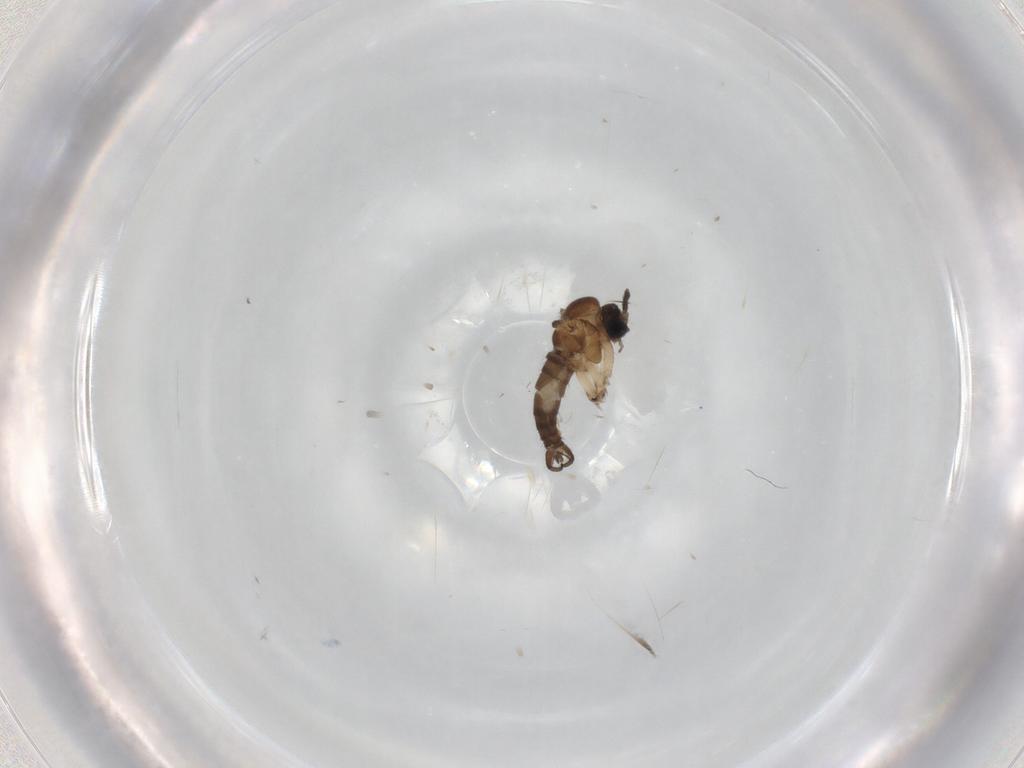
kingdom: Animalia
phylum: Arthropoda
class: Insecta
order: Diptera
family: Sciaridae
